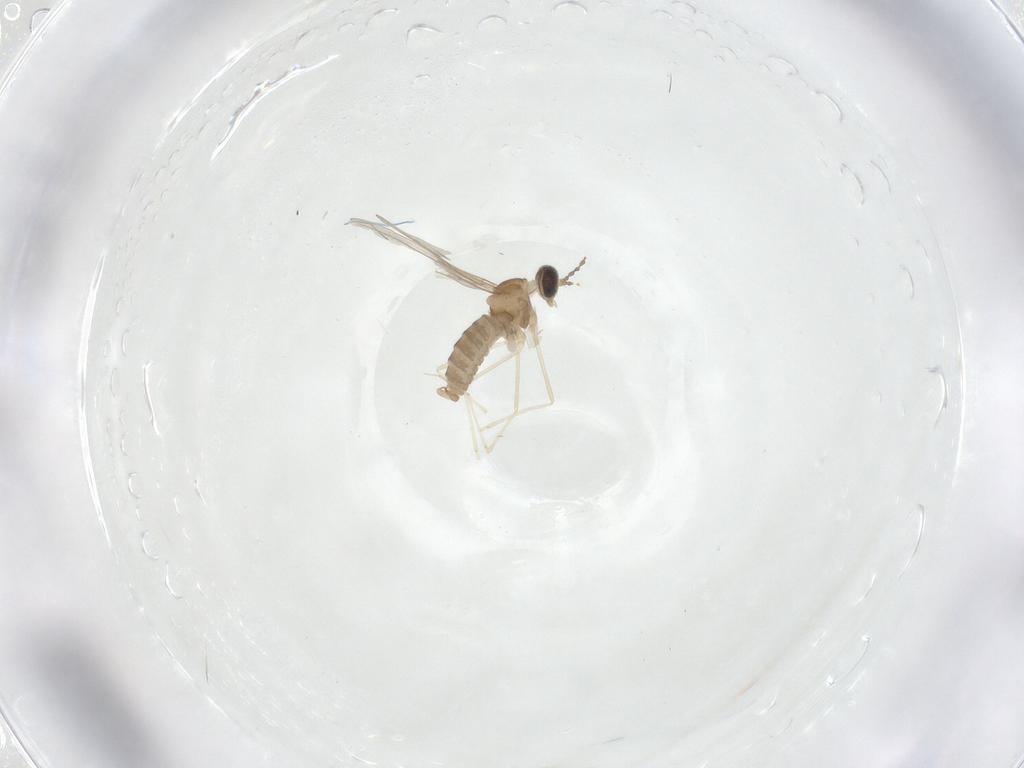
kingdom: Animalia
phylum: Arthropoda
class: Insecta
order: Diptera
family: Cecidomyiidae
